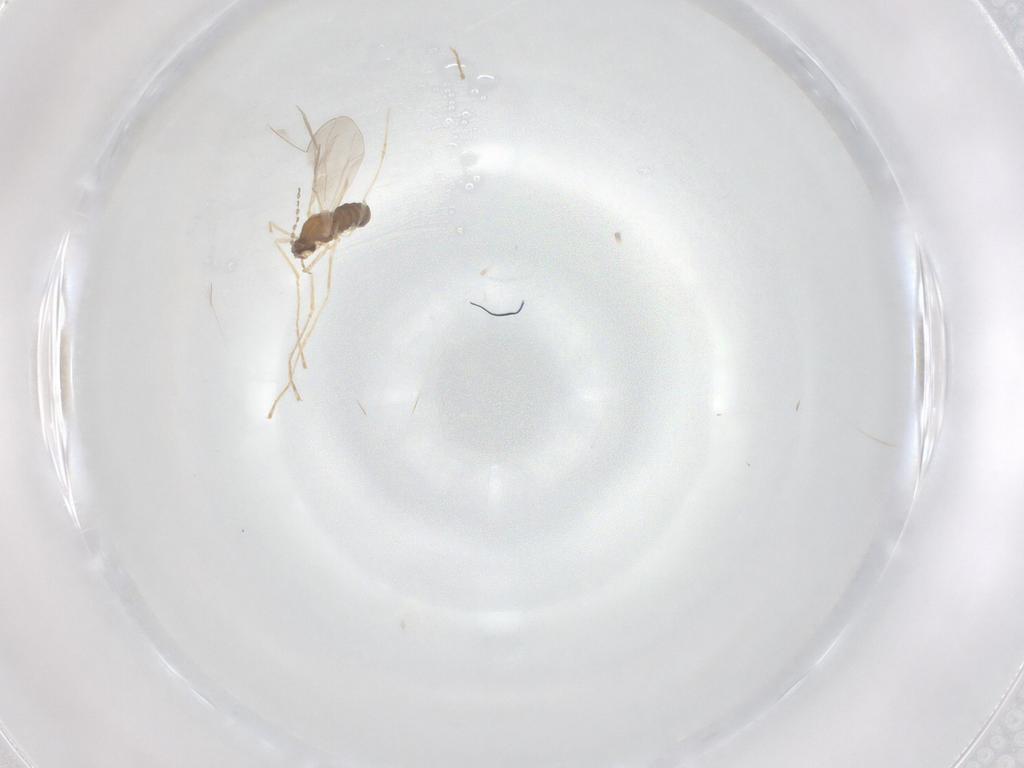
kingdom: Animalia
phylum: Arthropoda
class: Insecta
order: Diptera
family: Cecidomyiidae
